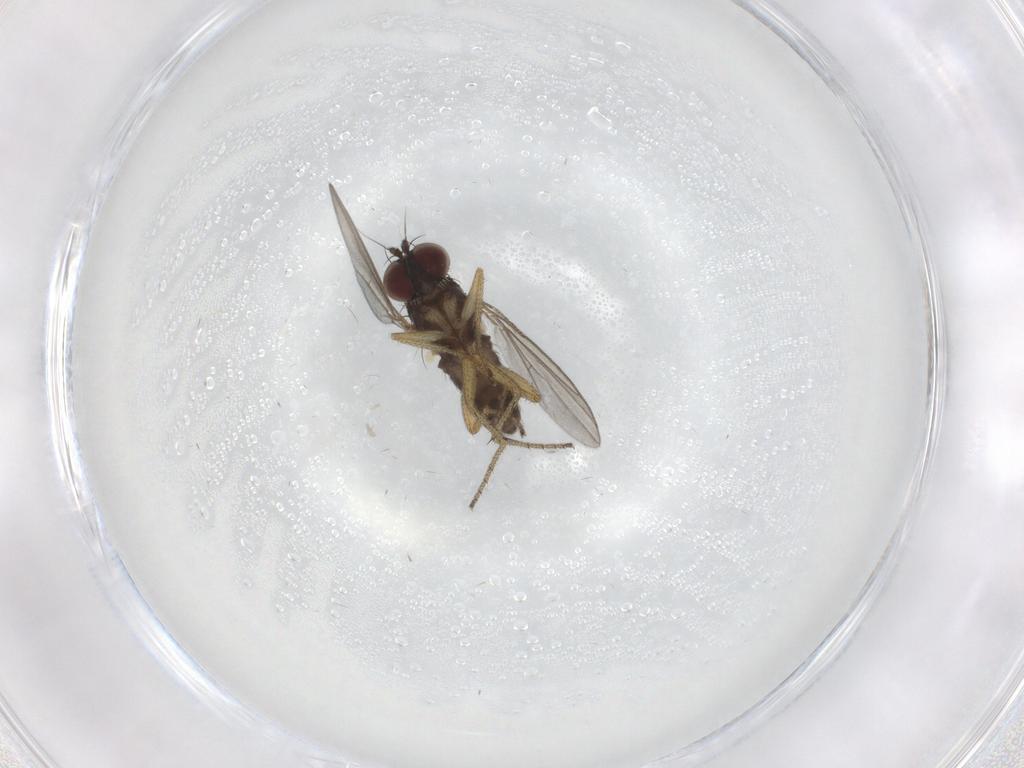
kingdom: Animalia
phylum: Arthropoda
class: Insecta
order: Diptera
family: Dolichopodidae
